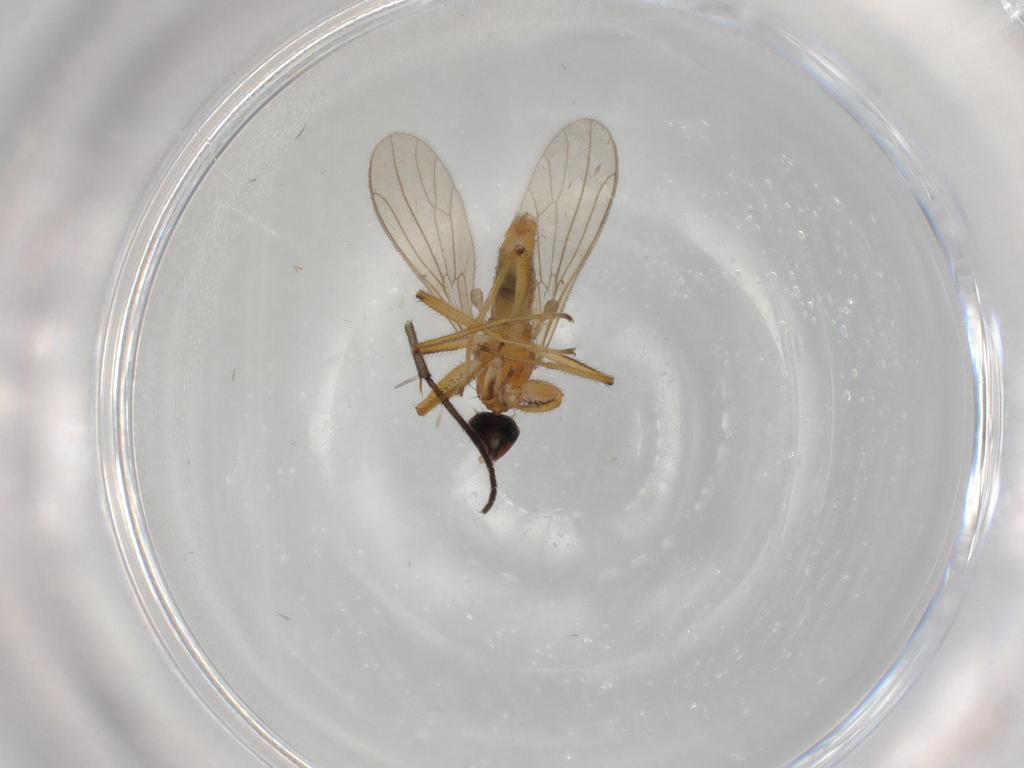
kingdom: Animalia
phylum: Arthropoda
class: Insecta
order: Diptera
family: Empididae
